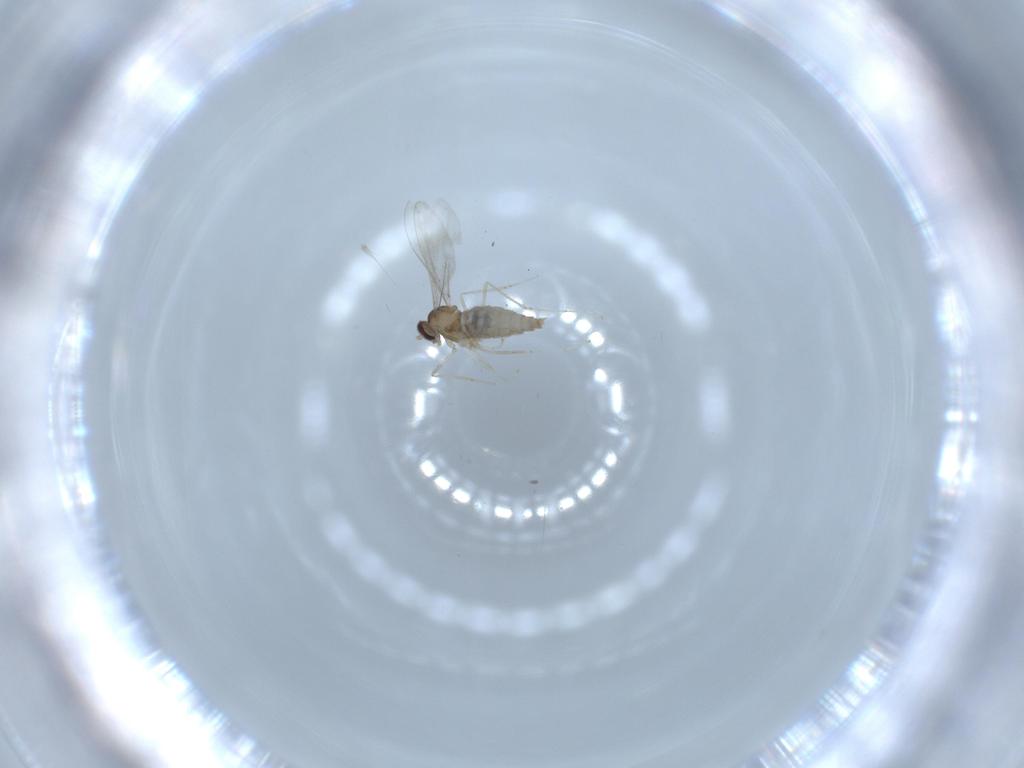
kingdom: Animalia
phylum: Arthropoda
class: Insecta
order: Diptera
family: Cecidomyiidae
